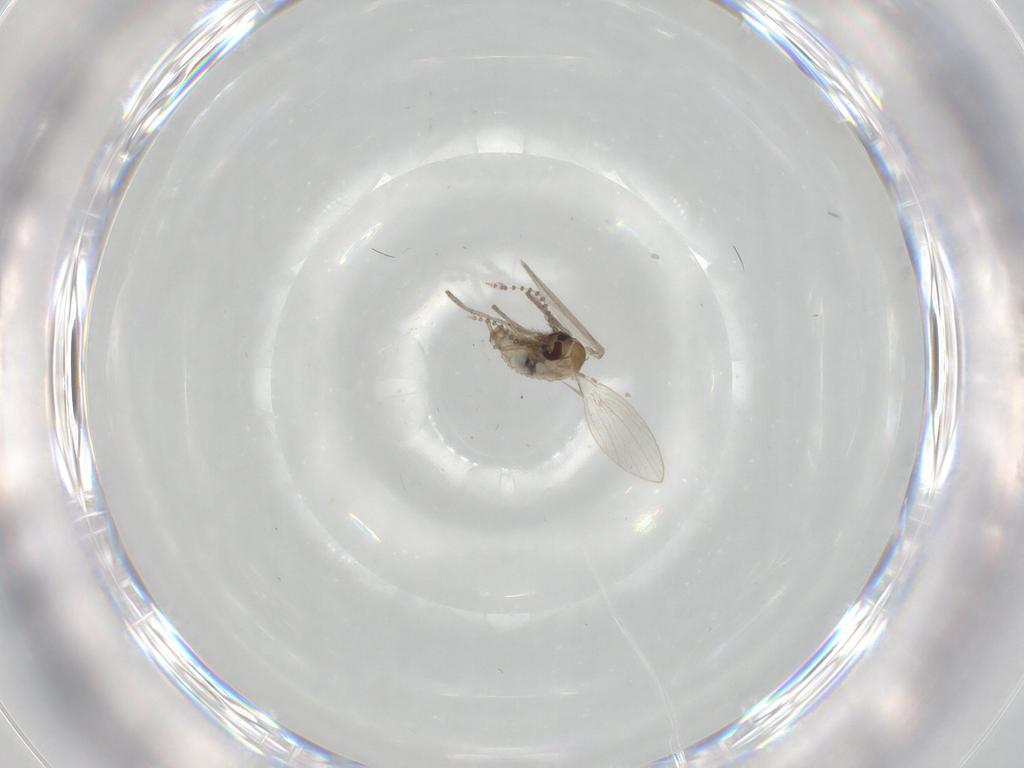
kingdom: Animalia
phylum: Arthropoda
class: Insecta
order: Diptera
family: Psychodidae
